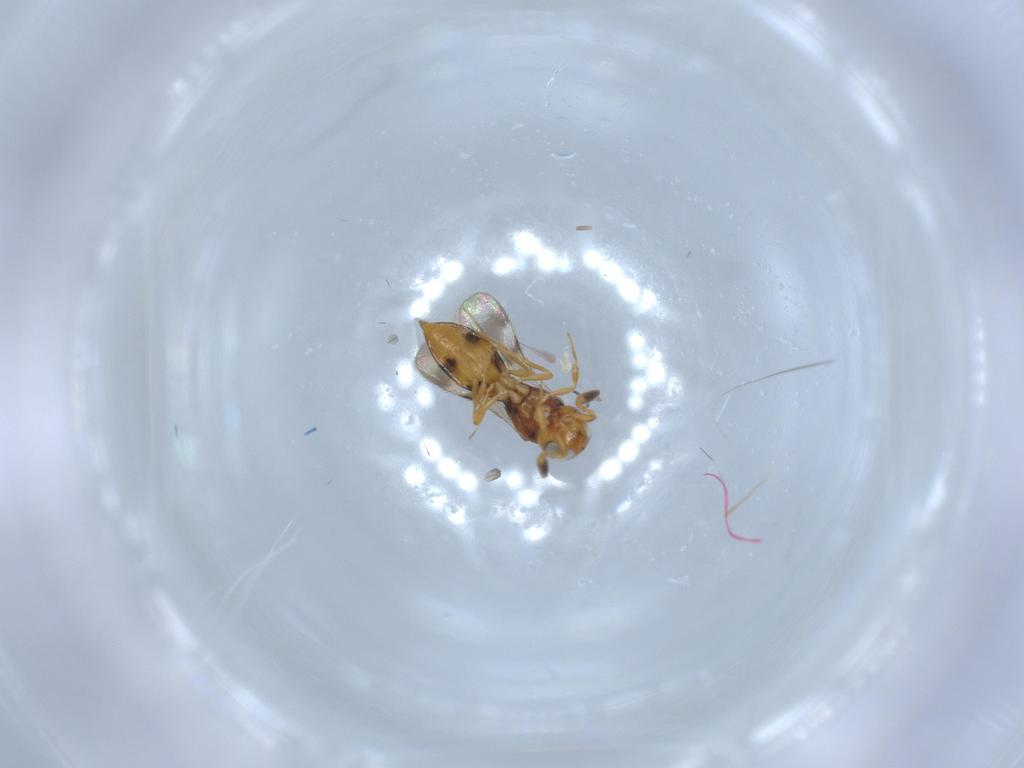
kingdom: Animalia
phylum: Arthropoda
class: Insecta
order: Hymenoptera
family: Scelionidae
